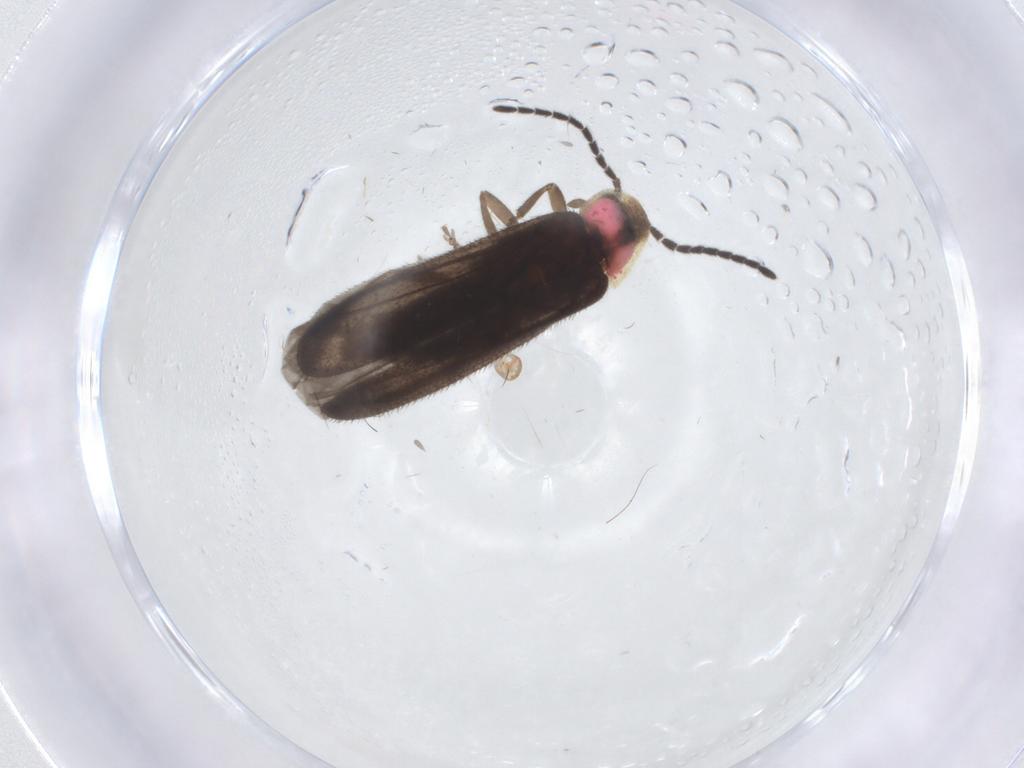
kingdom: Animalia
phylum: Arthropoda
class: Insecta
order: Coleoptera
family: Lampyridae
